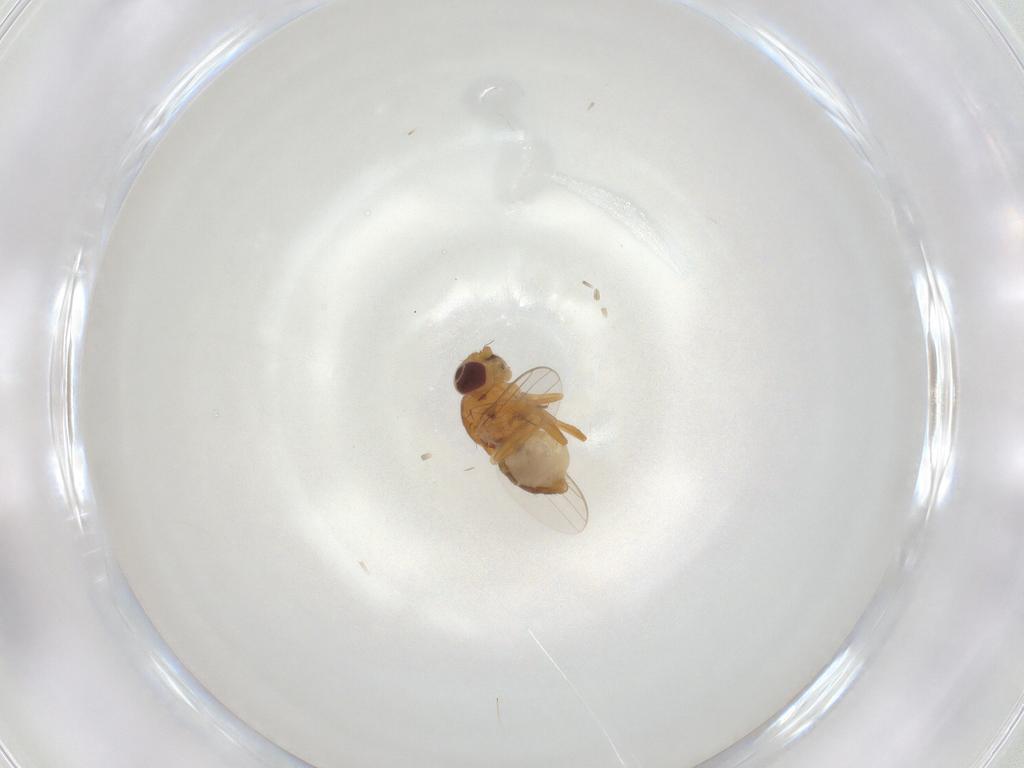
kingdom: Animalia
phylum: Arthropoda
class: Insecta
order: Diptera
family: Chloropidae
